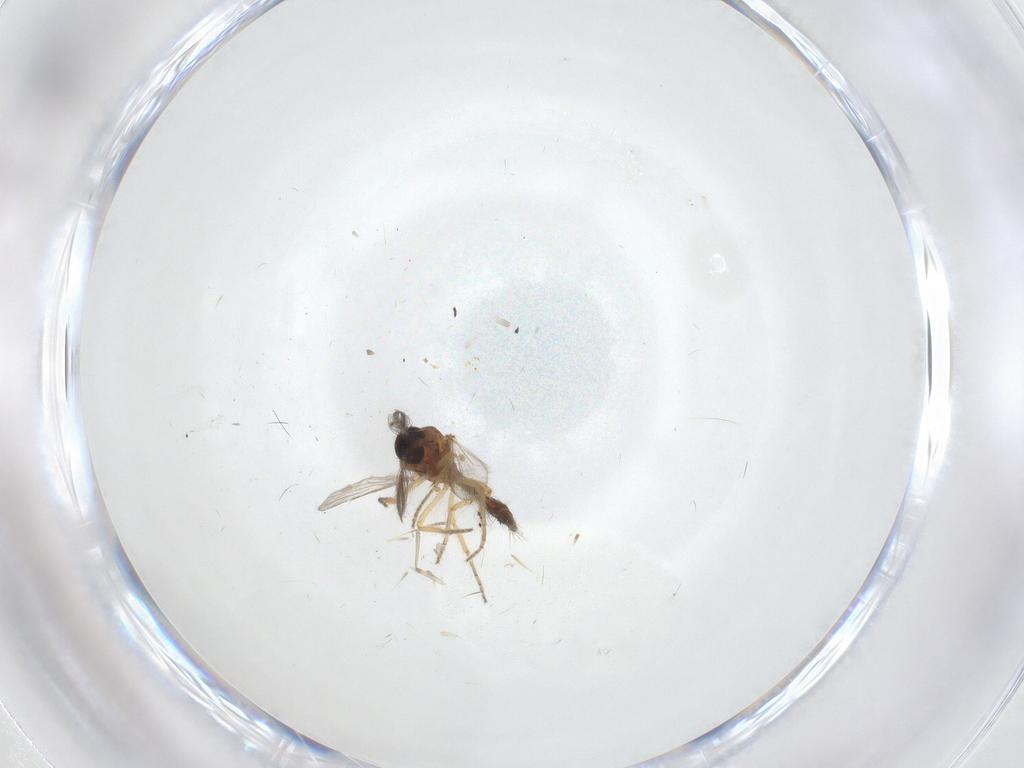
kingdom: Animalia
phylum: Arthropoda
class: Insecta
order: Diptera
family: Ceratopogonidae
